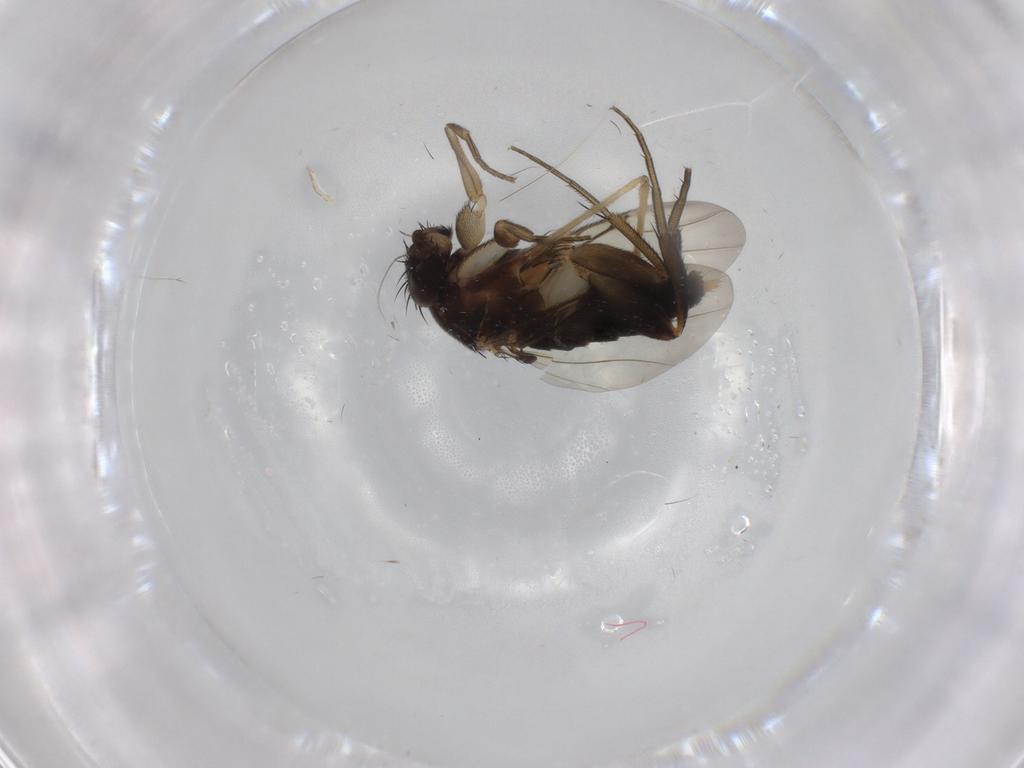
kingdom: Animalia
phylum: Arthropoda
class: Insecta
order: Diptera
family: Phoridae
